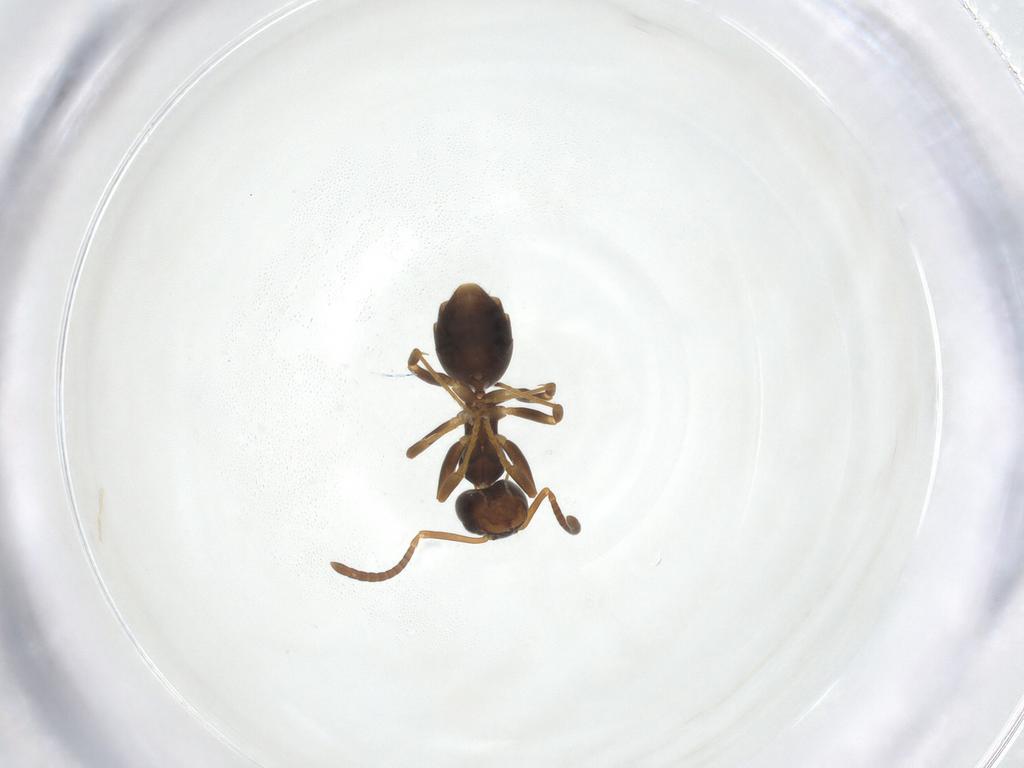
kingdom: Animalia
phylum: Arthropoda
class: Insecta
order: Hymenoptera
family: Formicidae
